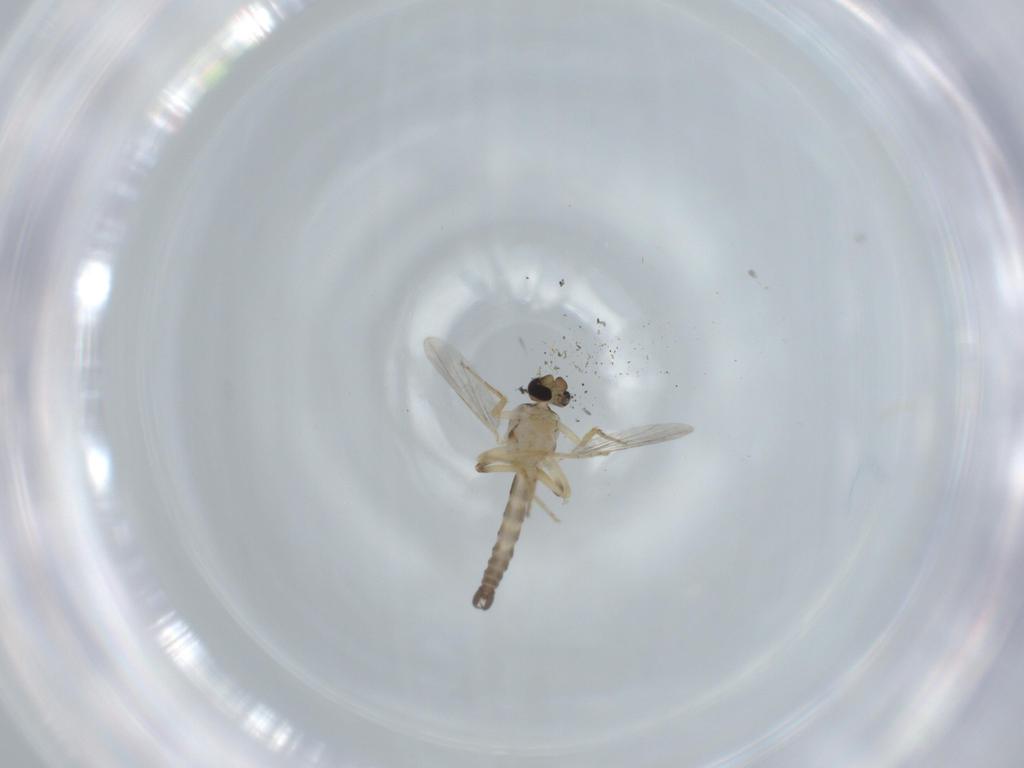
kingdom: Animalia
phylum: Arthropoda
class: Insecta
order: Diptera
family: Ceratopogonidae
